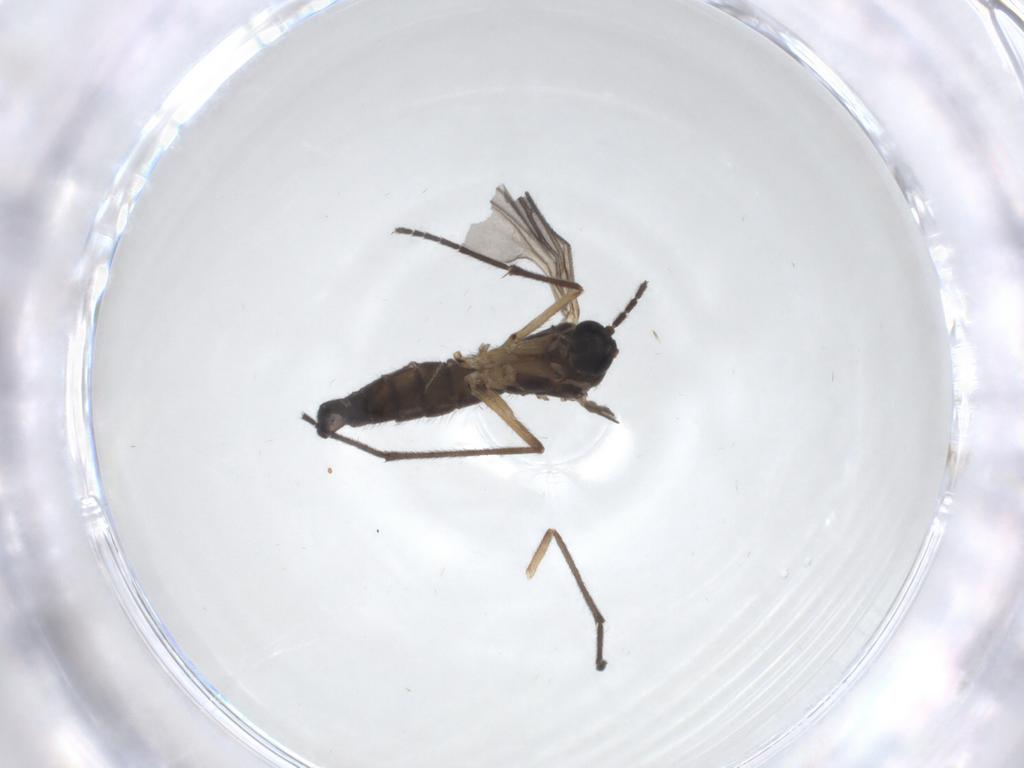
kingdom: Animalia
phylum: Arthropoda
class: Insecta
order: Diptera
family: Sciaridae
